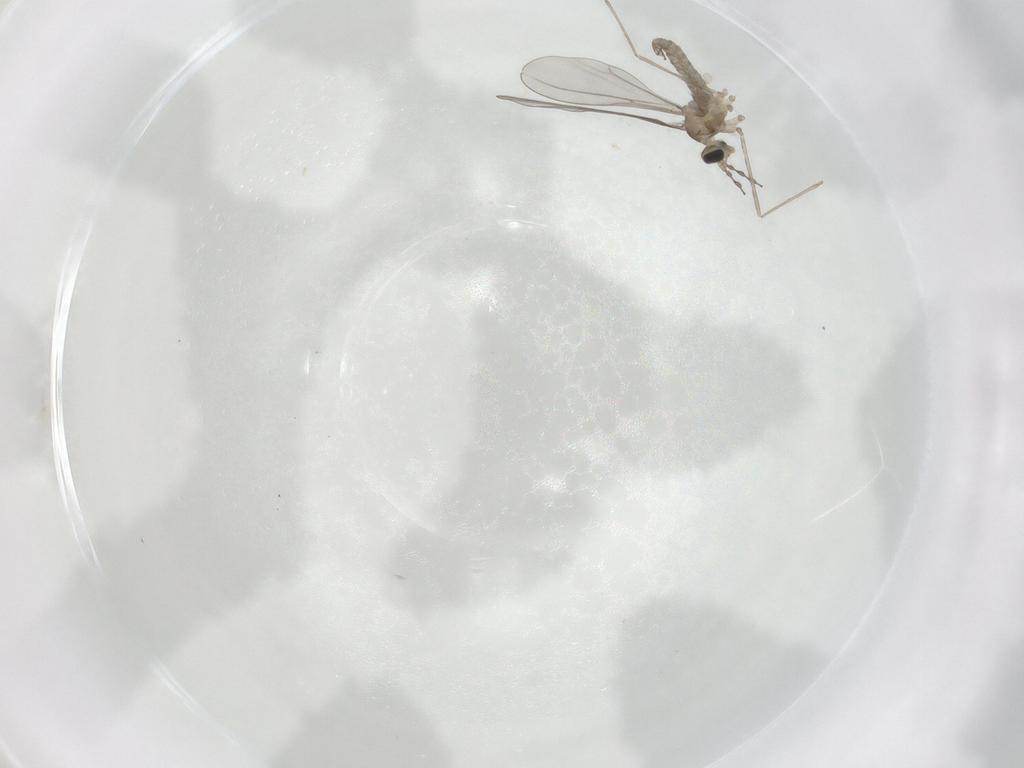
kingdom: Animalia
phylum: Arthropoda
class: Insecta
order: Diptera
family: Cecidomyiidae
